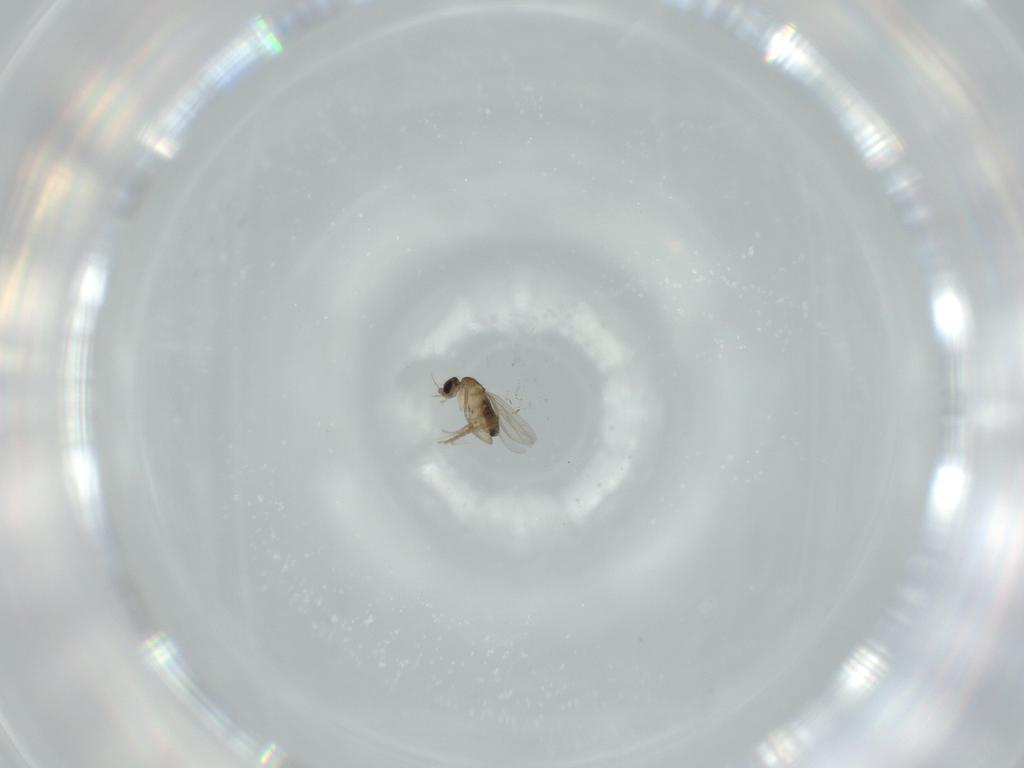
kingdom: Animalia
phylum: Arthropoda
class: Insecta
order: Diptera
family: Cecidomyiidae
